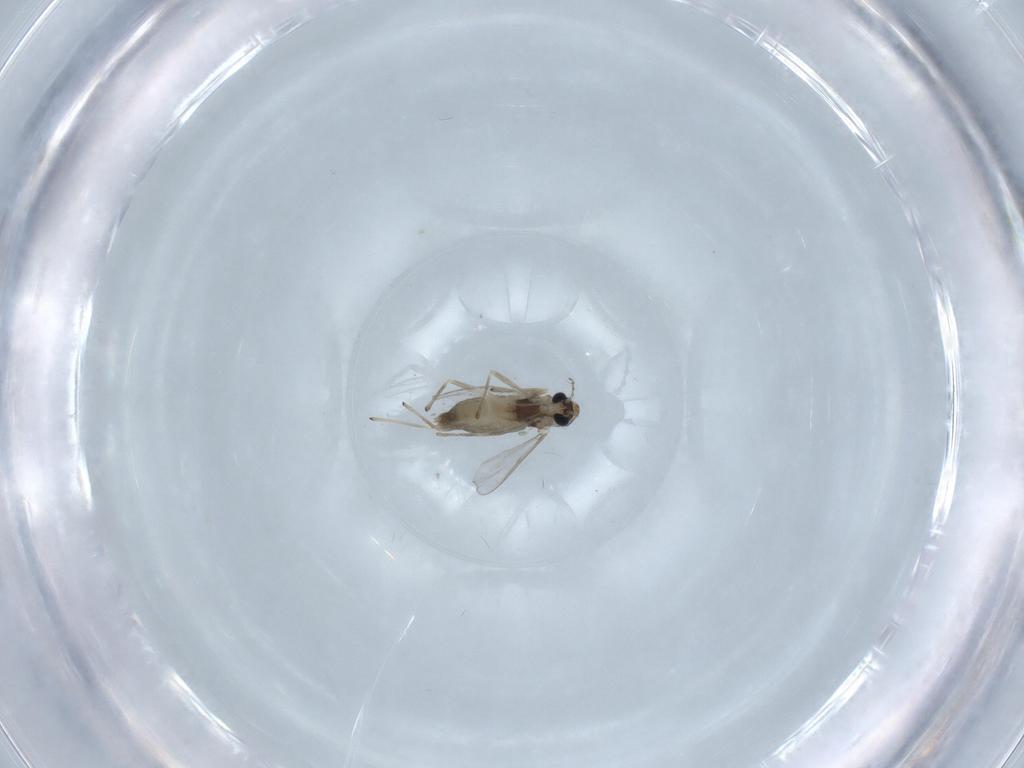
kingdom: Animalia
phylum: Arthropoda
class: Insecta
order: Diptera
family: Chironomidae
